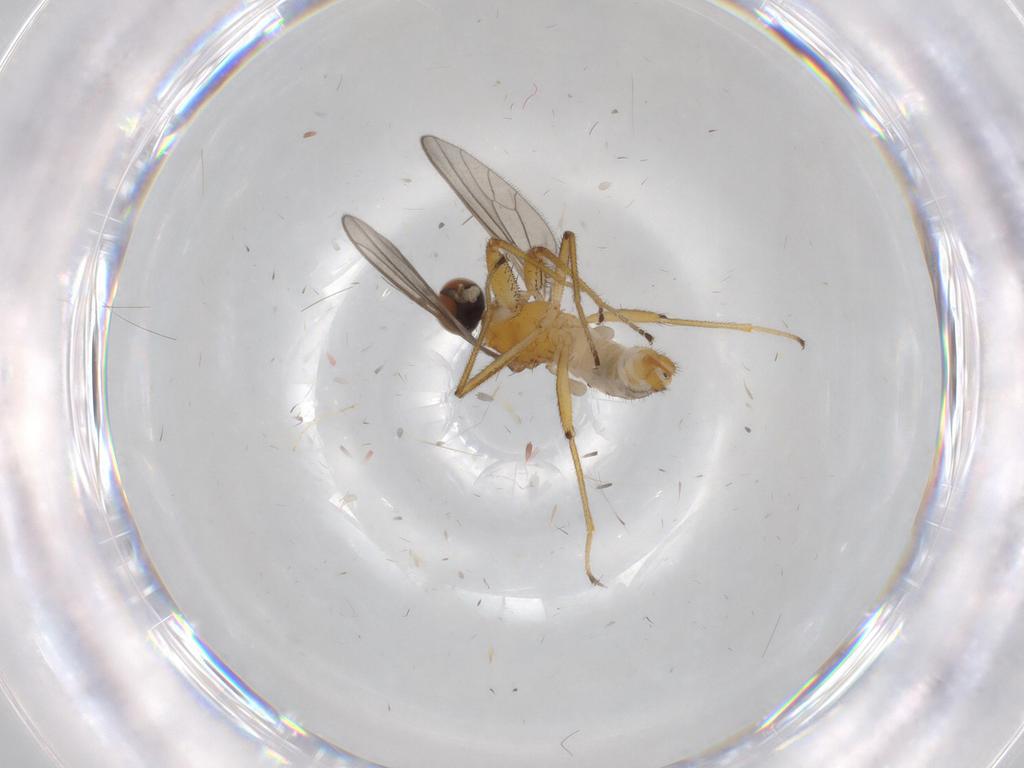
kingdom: Animalia
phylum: Arthropoda
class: Insecta
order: Diptera
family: Empididae
